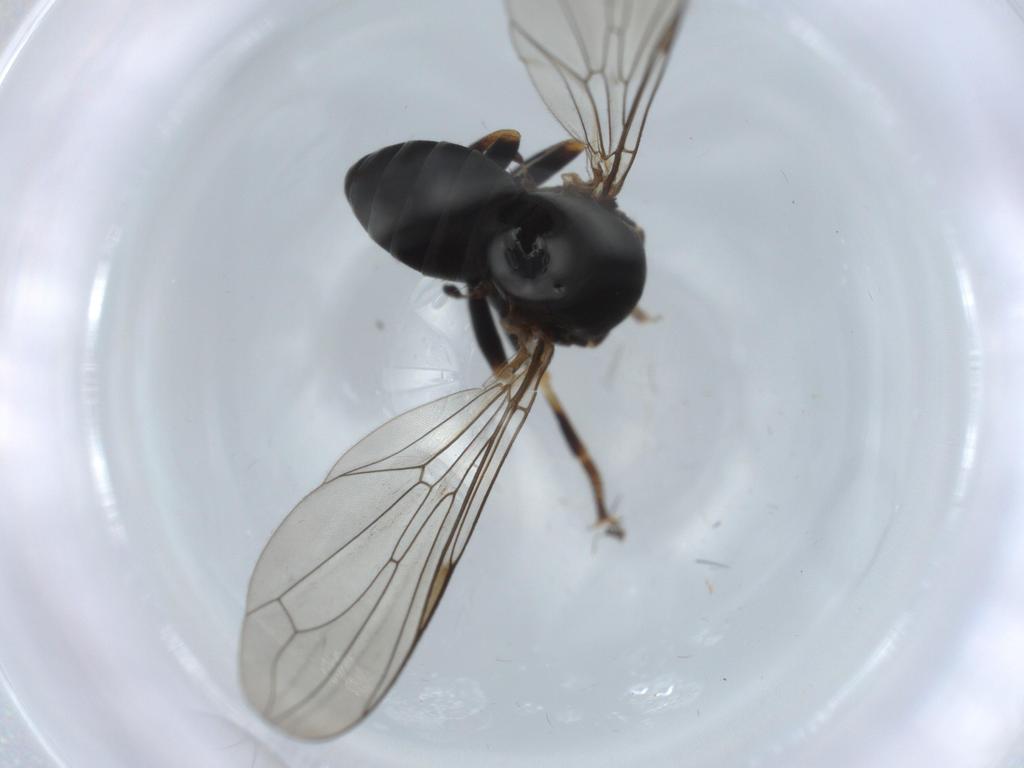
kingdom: Animalia
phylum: Arthropoda
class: Insecta
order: Diptera
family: Pipunculidae
